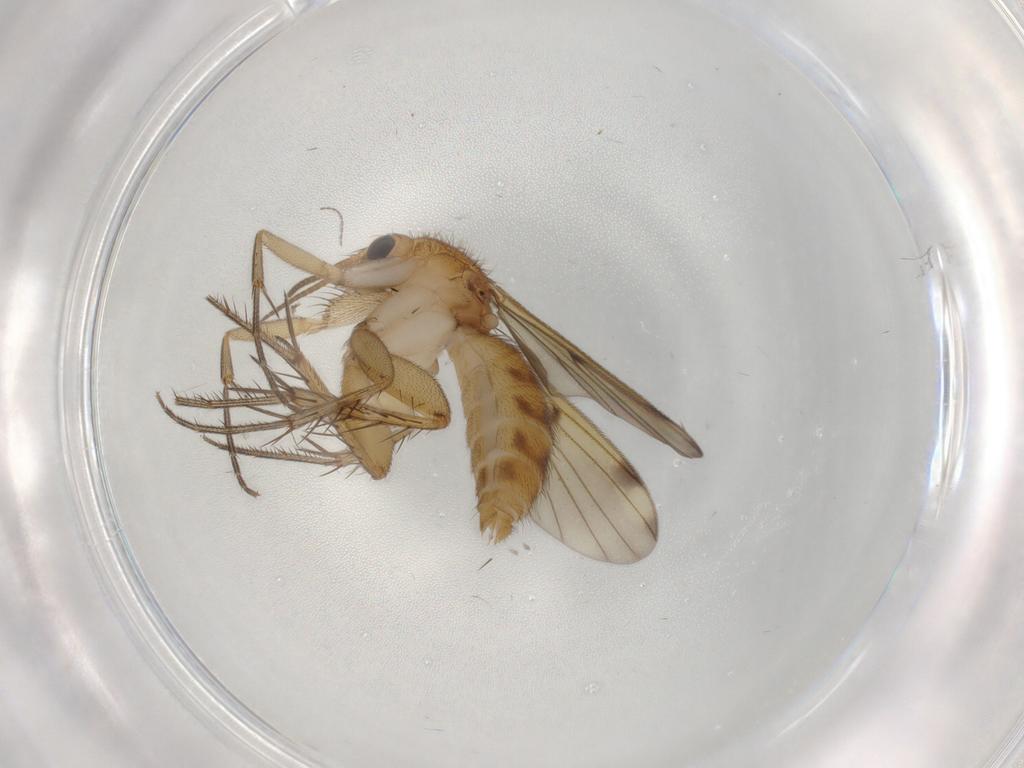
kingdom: Animalia
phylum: Arthropoda
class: Insecta
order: Diptera
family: Mycetophilidae
